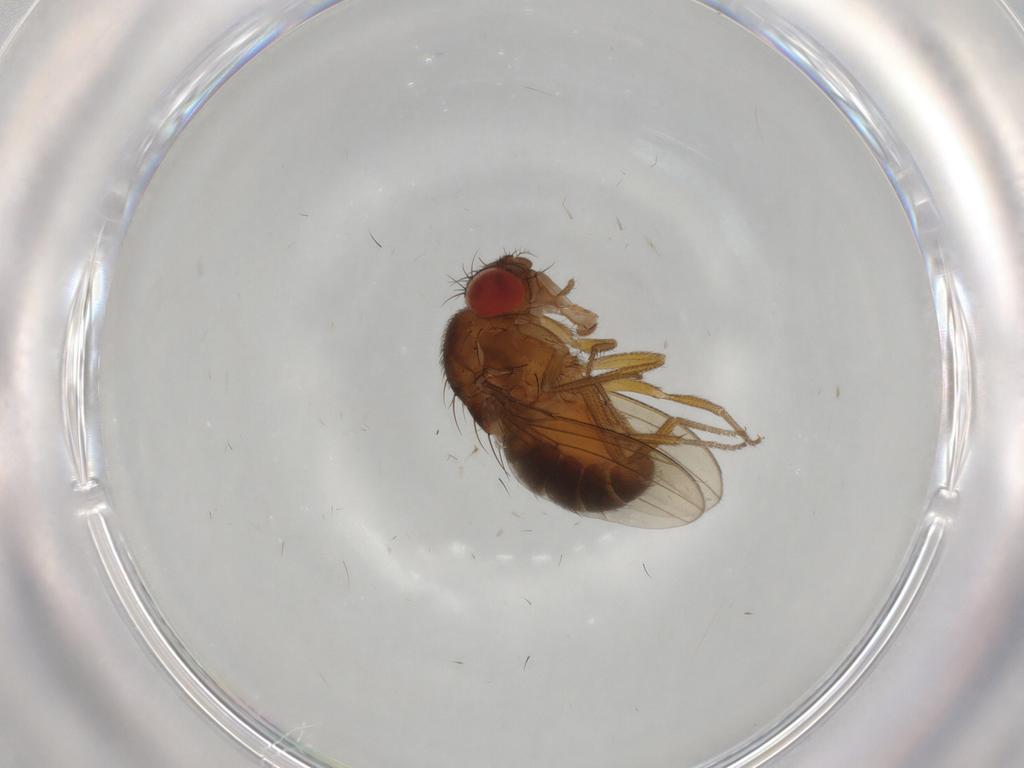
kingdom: Animalia
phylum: Arthropoda
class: Insecta
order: Diptera
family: Drosophilidae
